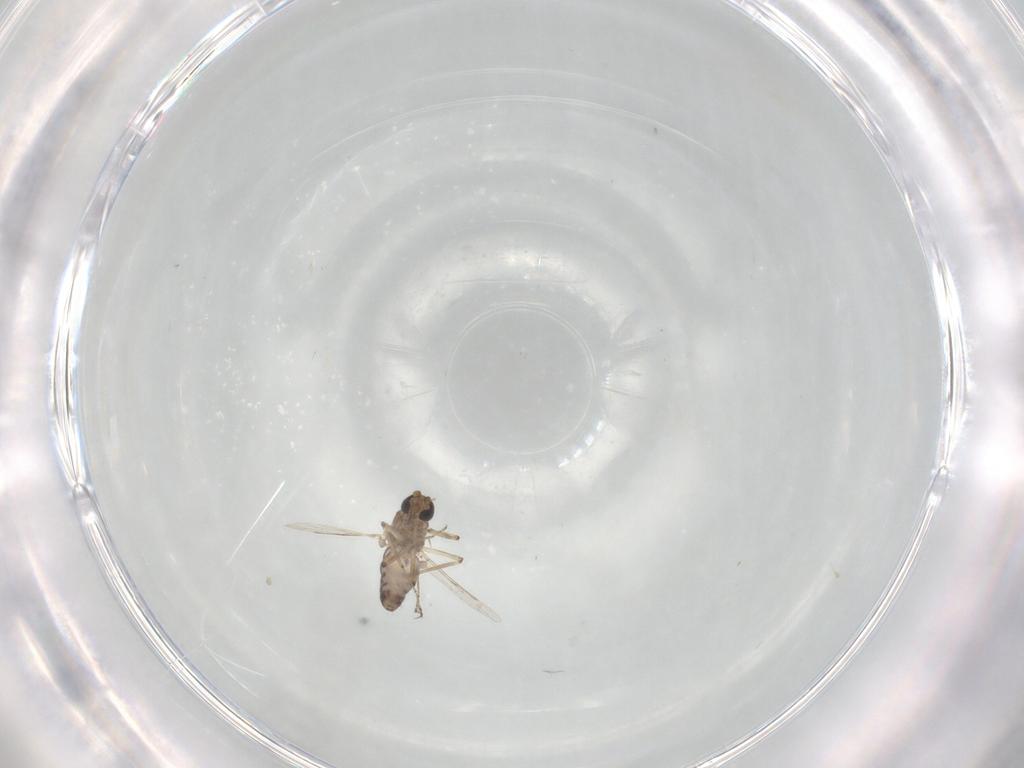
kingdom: Animalia
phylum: Arthropoda
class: Insecta
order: Diptera
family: Ceratopogonidae
